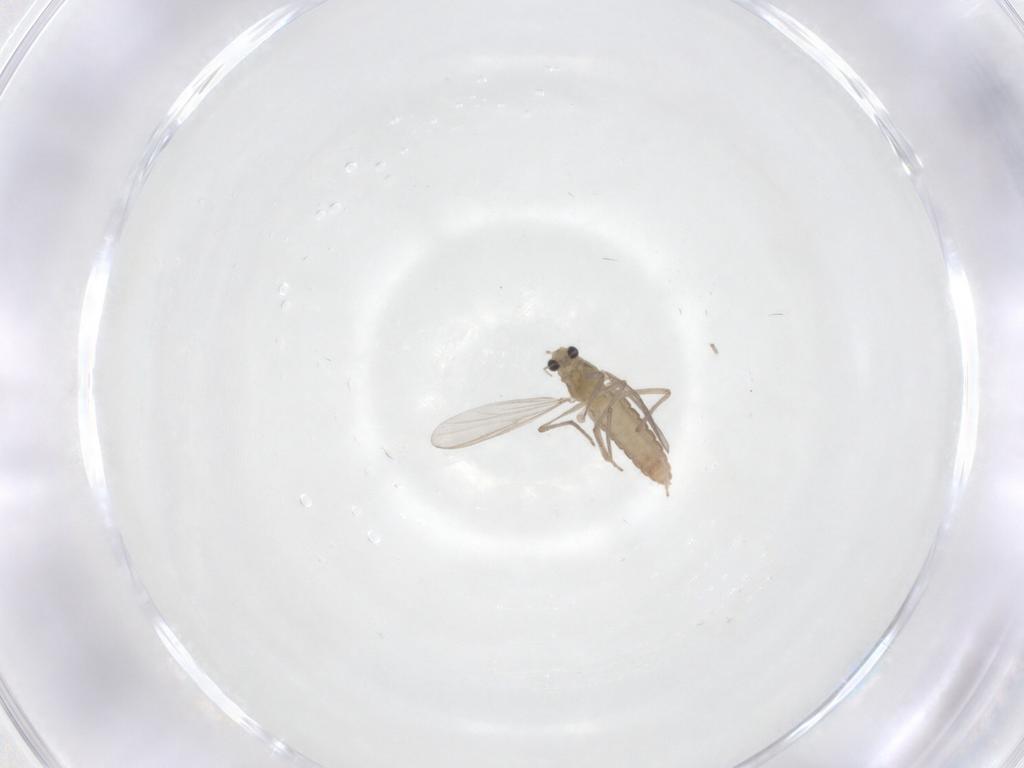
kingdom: Animalia
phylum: Arthropoda
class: Insecta
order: Diptera
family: Chironomidae
